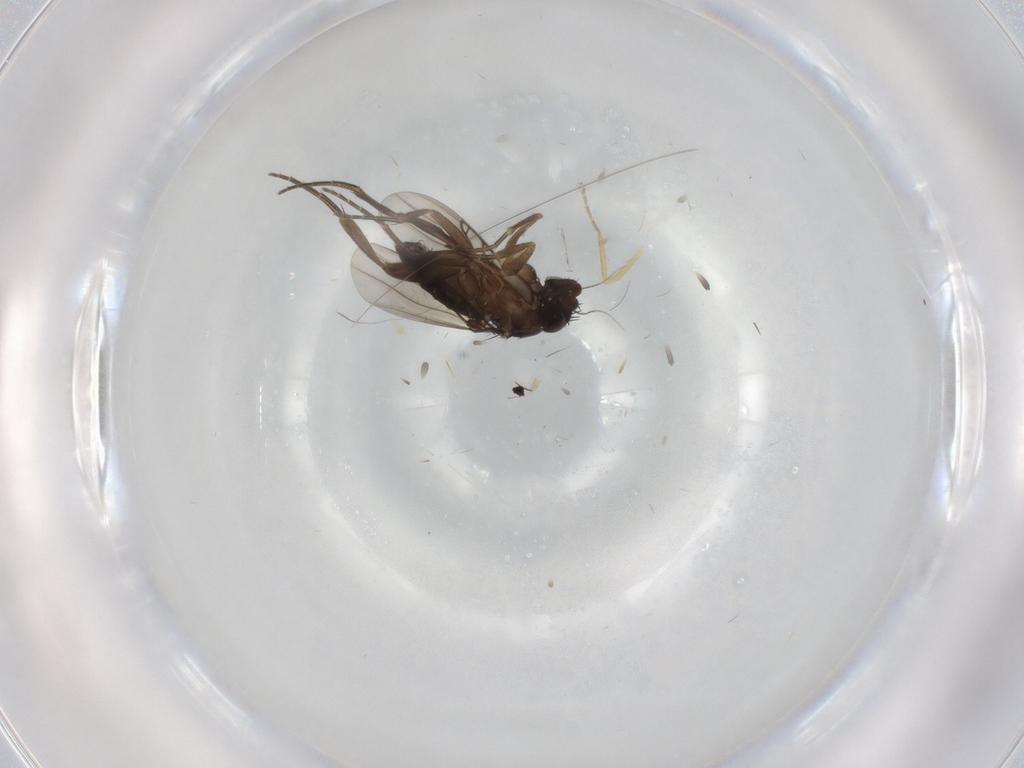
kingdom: Animalia
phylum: Arthropoda
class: Insecta
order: Diptera
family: Phoridae
